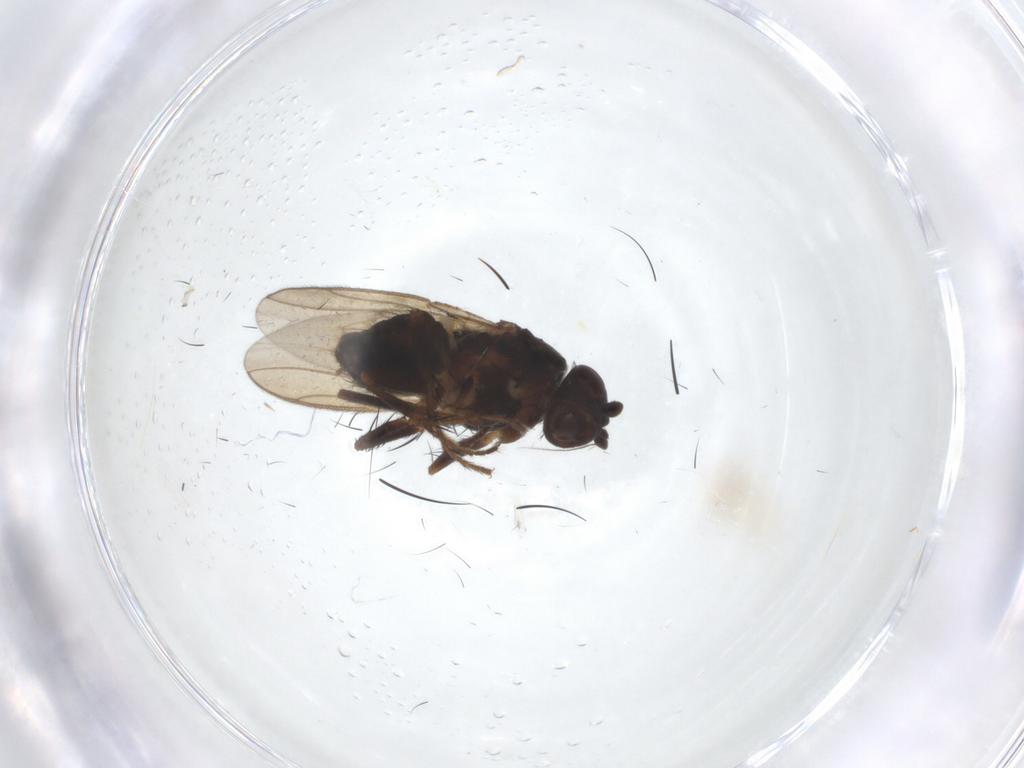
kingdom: Animalia
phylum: Arthropoda
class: Insecta
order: Diptera
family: Sphaeroceridae
